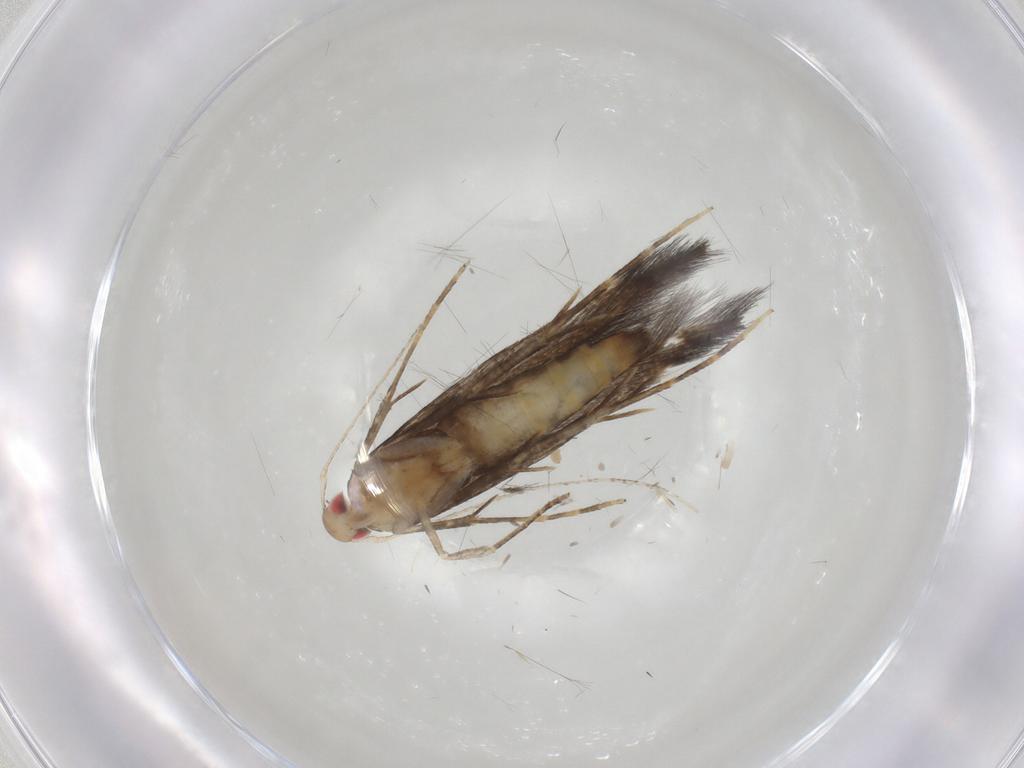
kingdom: Animalia
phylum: Arthropoda
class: Insecta
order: Lepidoptera
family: Cosmopterigidae
